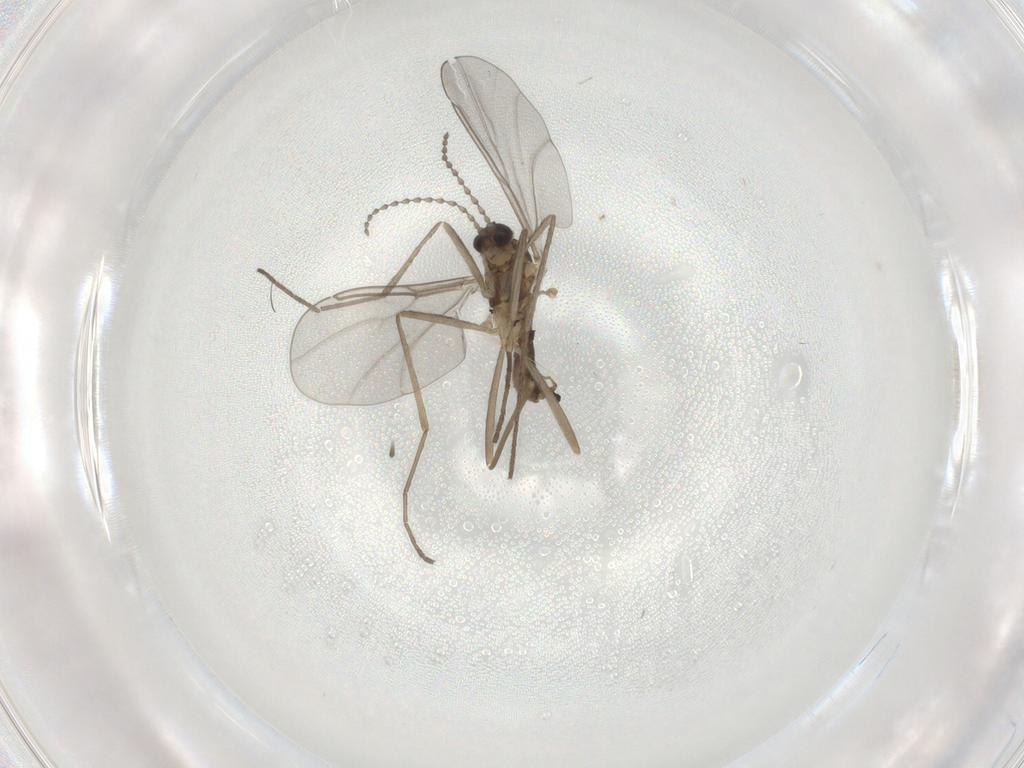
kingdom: Animalia
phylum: Arthropoda
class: Insecta
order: Diptera
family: Cecidomyiidae
